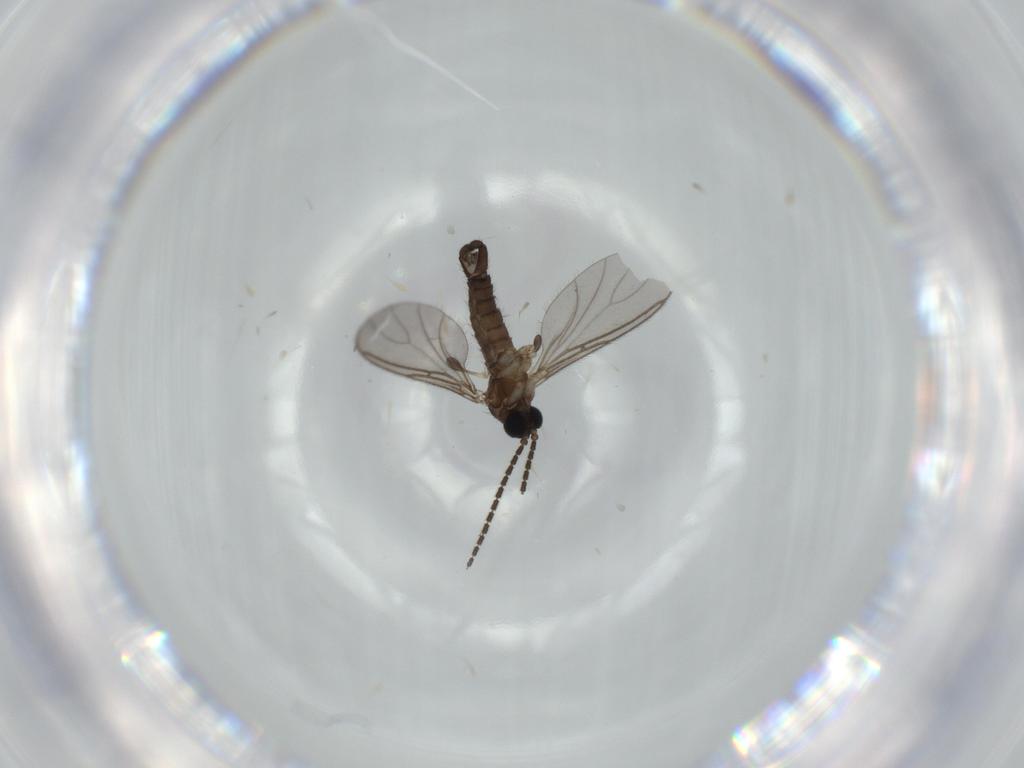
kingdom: Animalia
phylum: Arthropoda
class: Insecta
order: Diptera
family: Sciaridae
